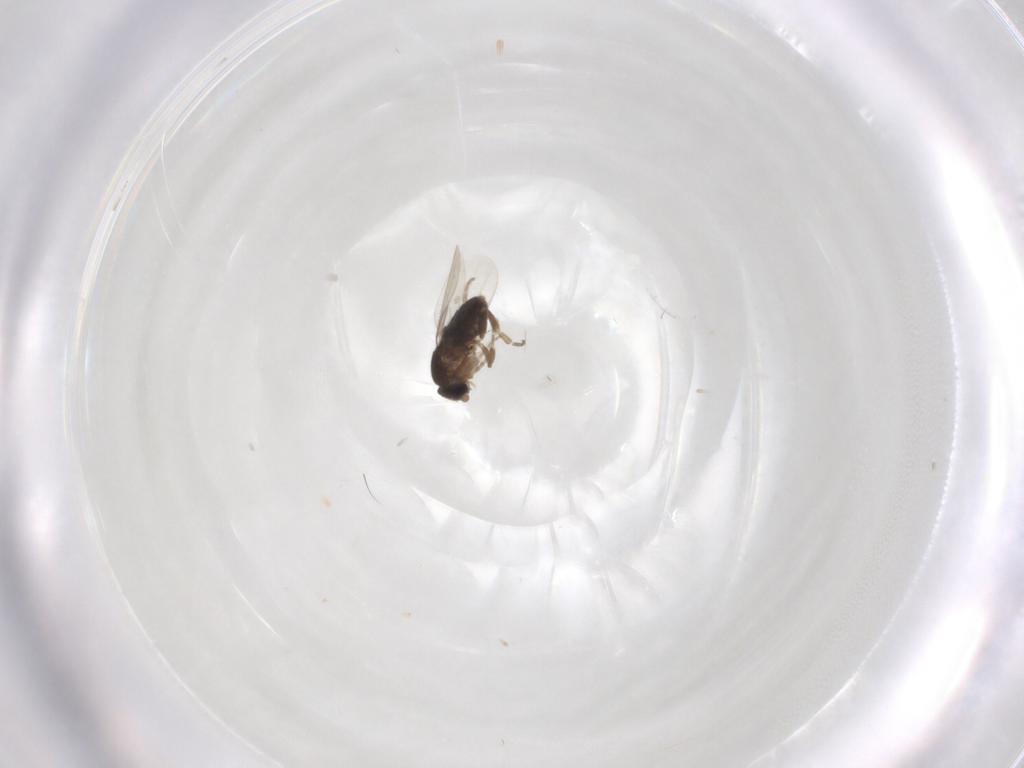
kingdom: Animalia
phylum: Arthropoda
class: Insecta
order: Diptera
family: Phoridae
